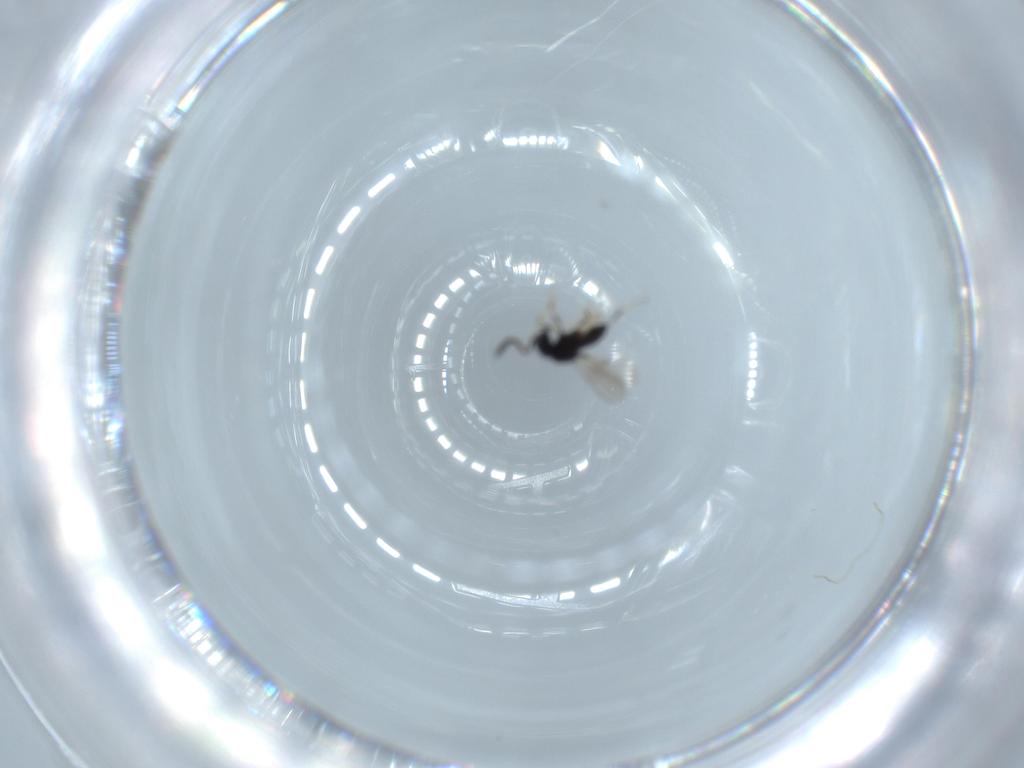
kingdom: Animalia
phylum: Arthropoda
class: Insecta
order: Hymenoptera
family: Scelionidae
